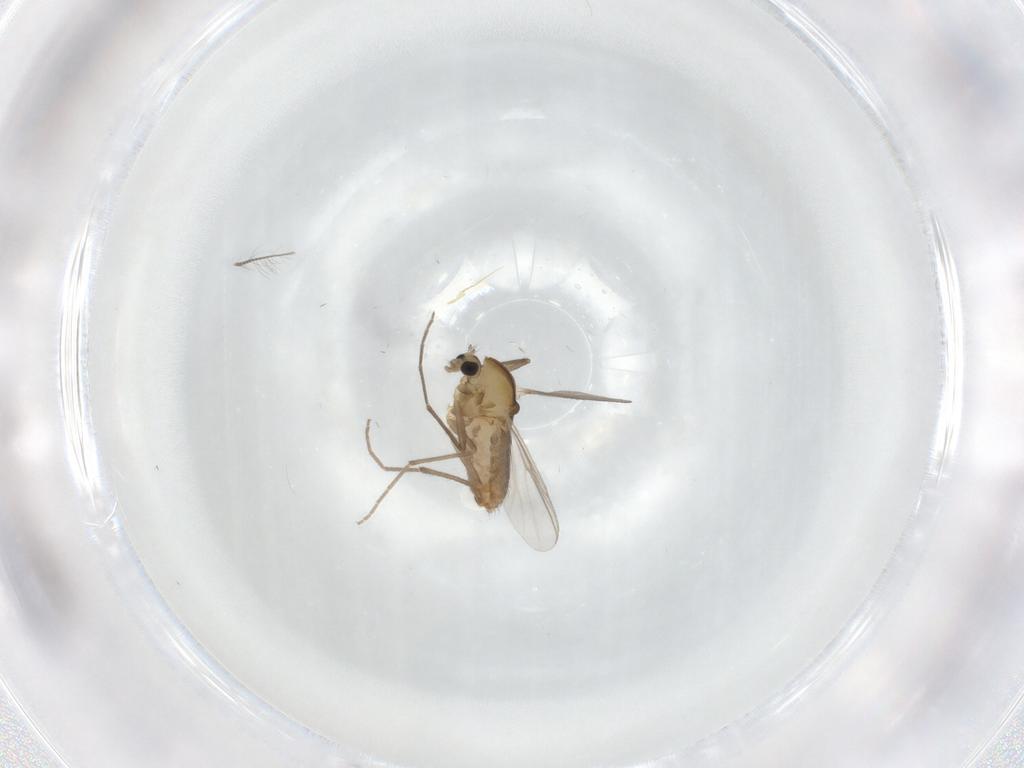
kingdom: Animalia
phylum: Arthropoda
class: Insecta
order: Diptera
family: Chironomidae
